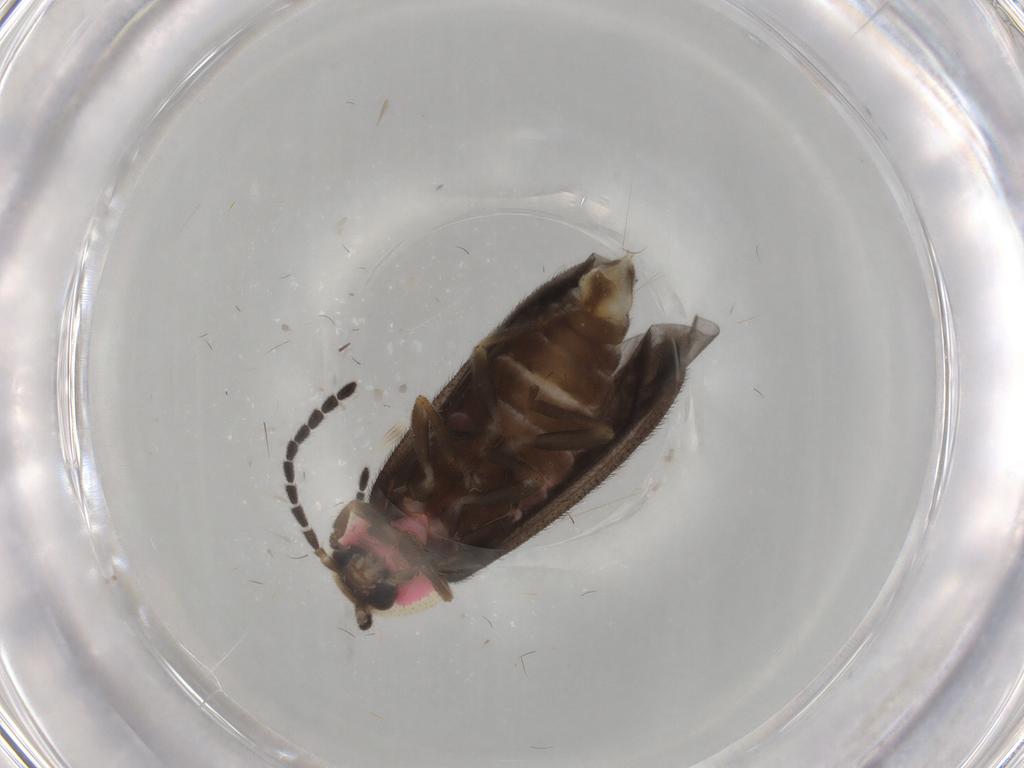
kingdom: Animalia
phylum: Arthropoda
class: Insecta
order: Coleoptera
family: Lampyridae
